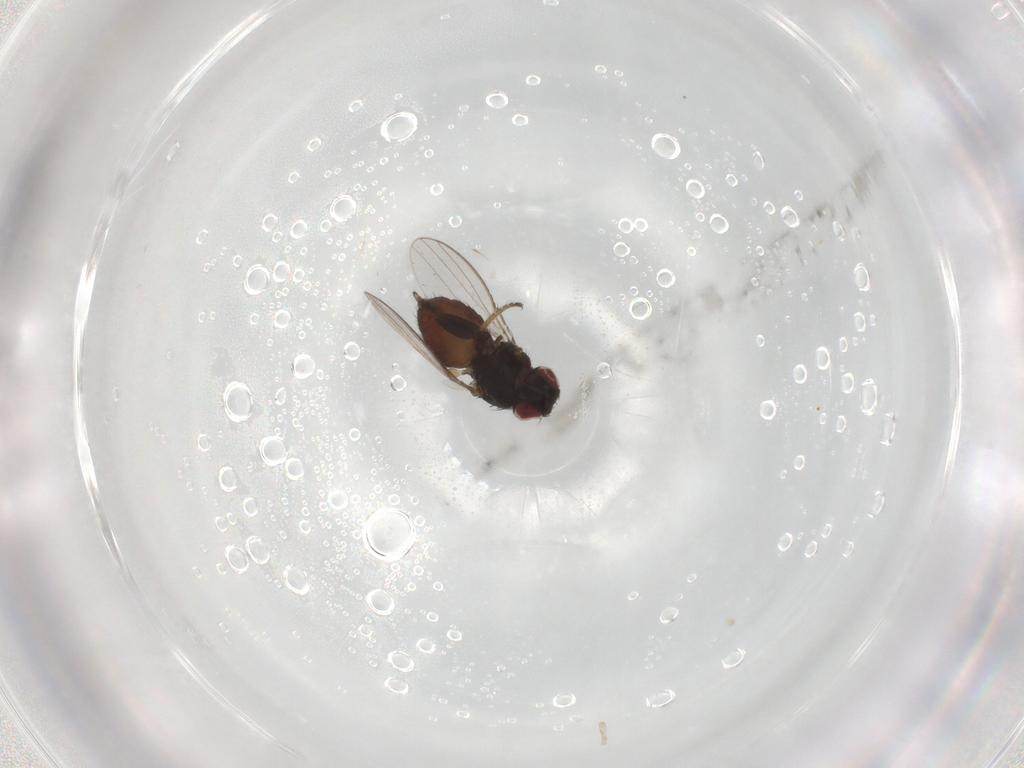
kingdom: Animalia
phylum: Arthropoda
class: Insecta
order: Diptera
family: Milichiidae
